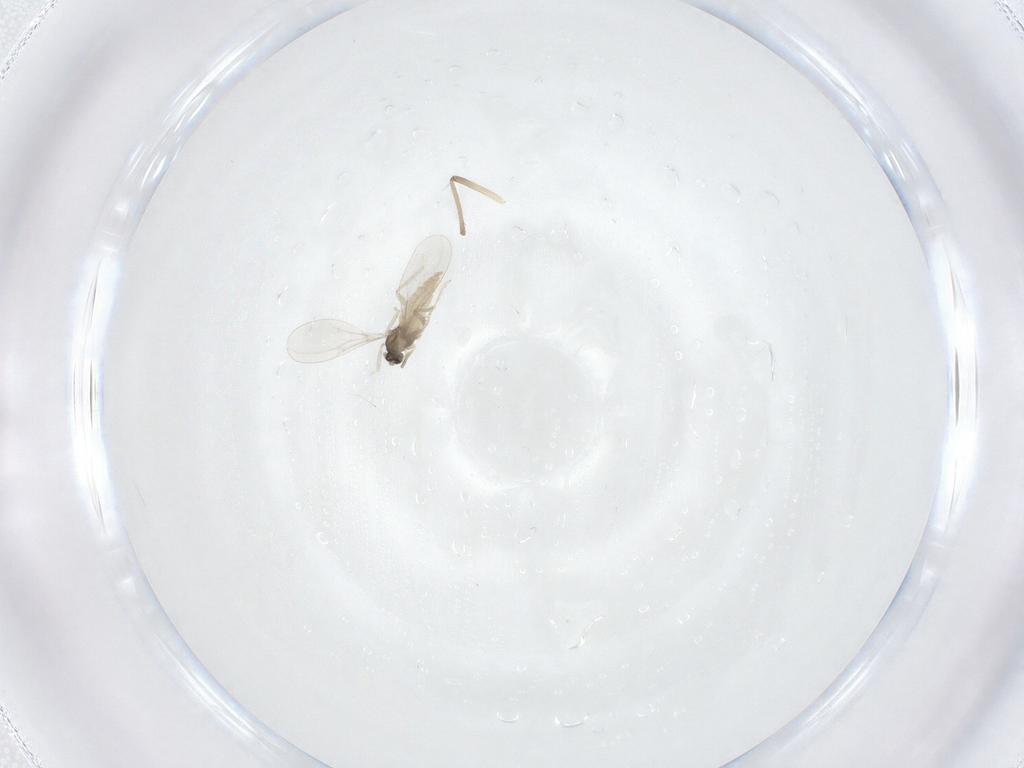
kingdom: Animalia
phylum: Arthropoda
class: Insecta
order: Diptera
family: Cecidomyiidae
